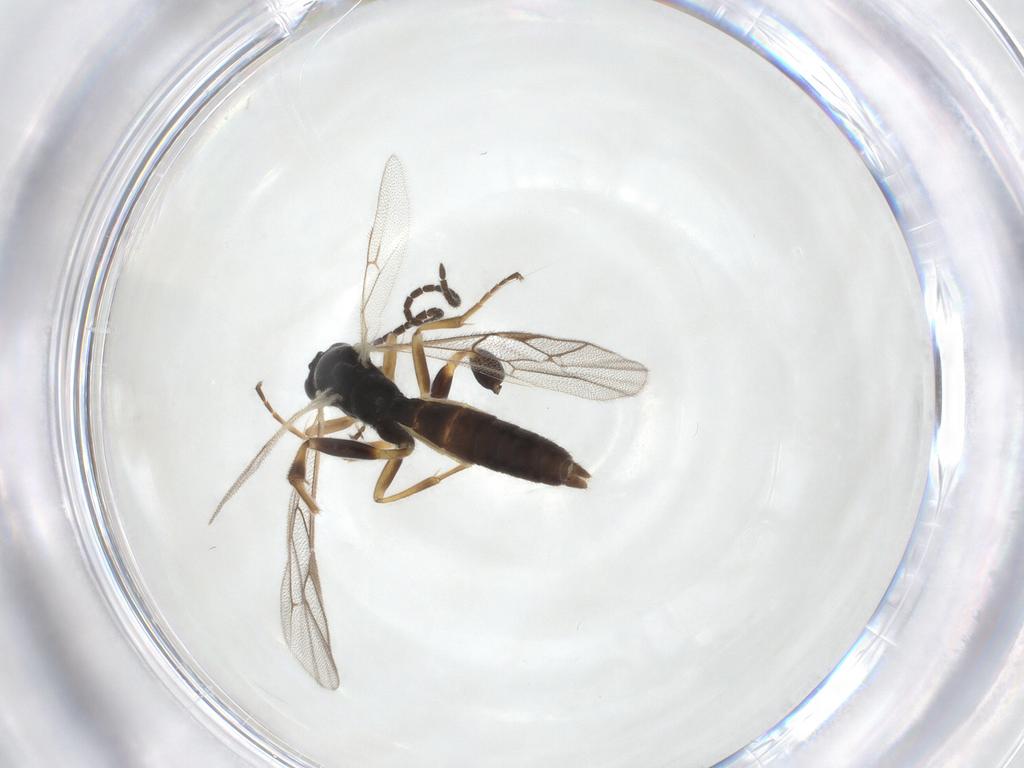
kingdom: Animalia
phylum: Arthropoda
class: Insecta
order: Hymenoptera
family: Ichneumonidae
